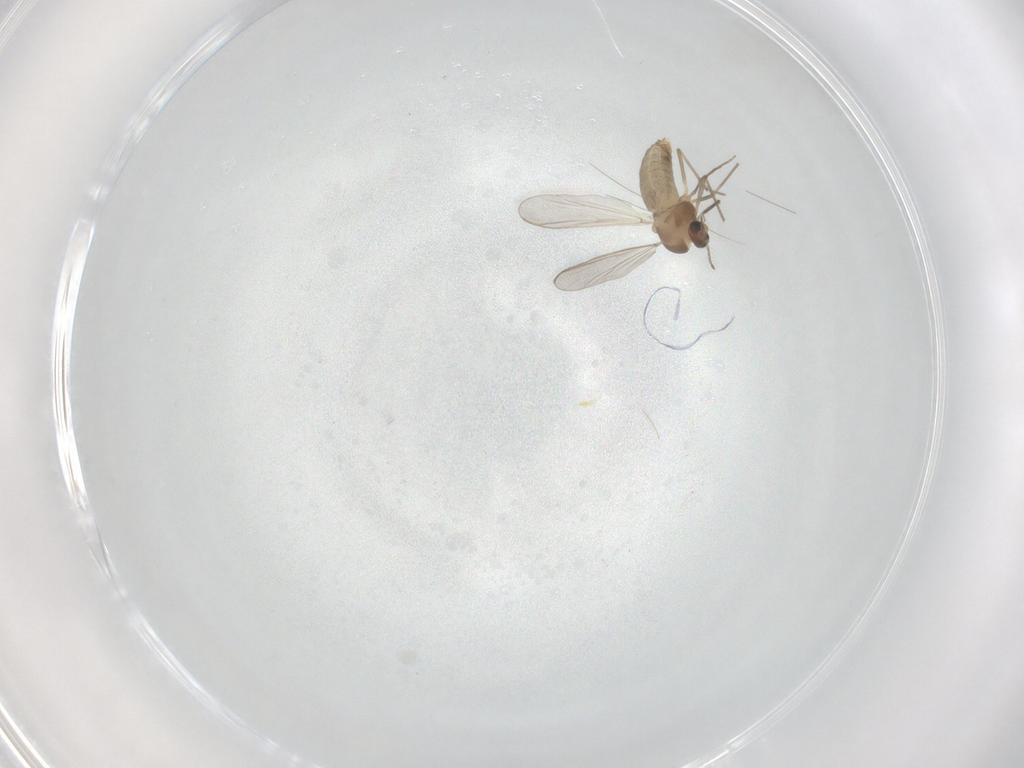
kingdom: Animalia
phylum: Arthropoda
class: Insecta
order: Diptera
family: Chironomidae
